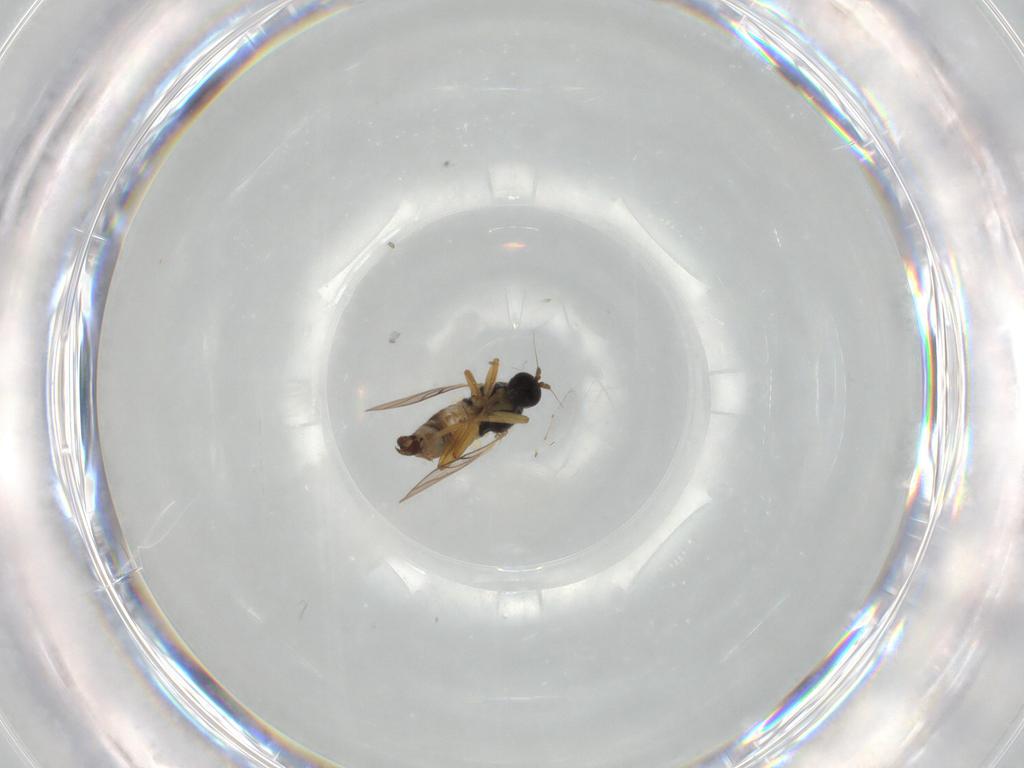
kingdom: Animalia
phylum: Arthropoda
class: Insecta
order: Diptera
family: Hybotidae
